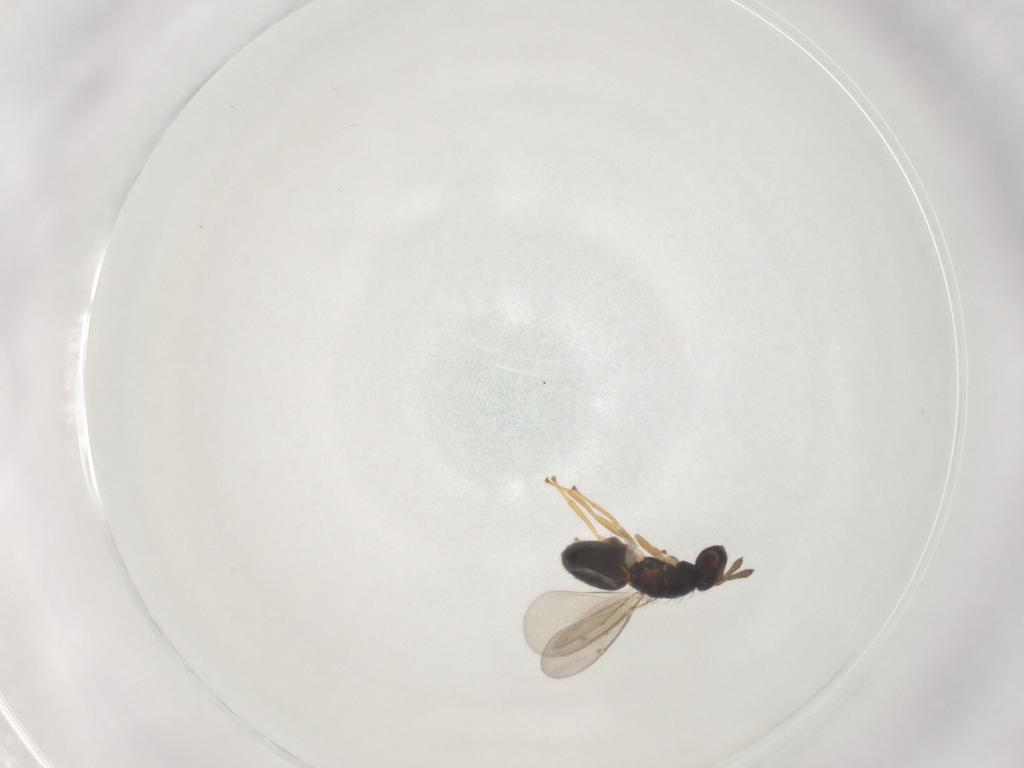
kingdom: Animalia
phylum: Arthropoda
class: Insecta
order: Hymenoptera
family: Eulophidae
